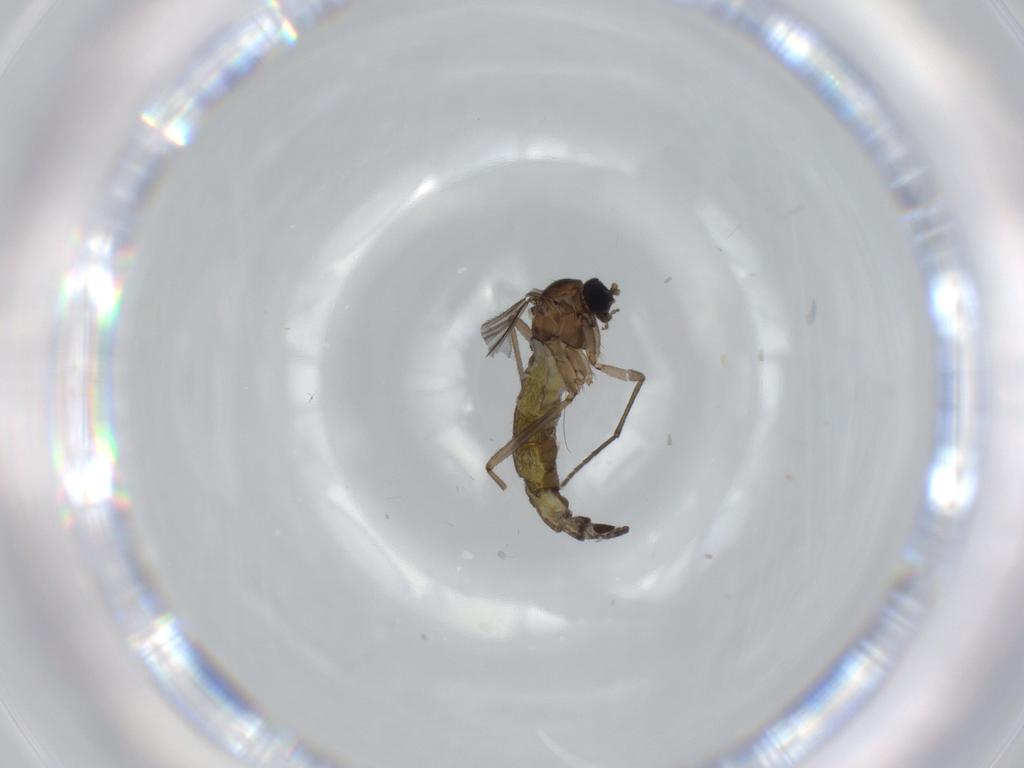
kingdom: Animalia
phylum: Arthropoda
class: Insecta
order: Diptera
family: Sciaridae
